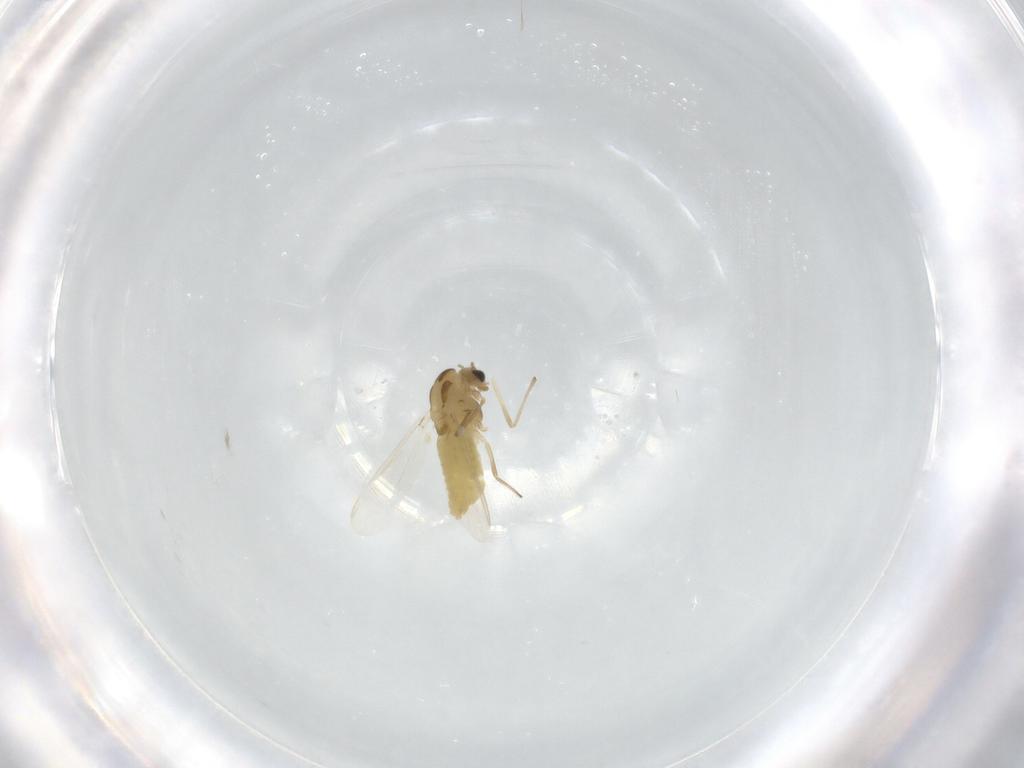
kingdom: Animalia
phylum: Arthropoda
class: Insecta
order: Diptera
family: Chironomidae
